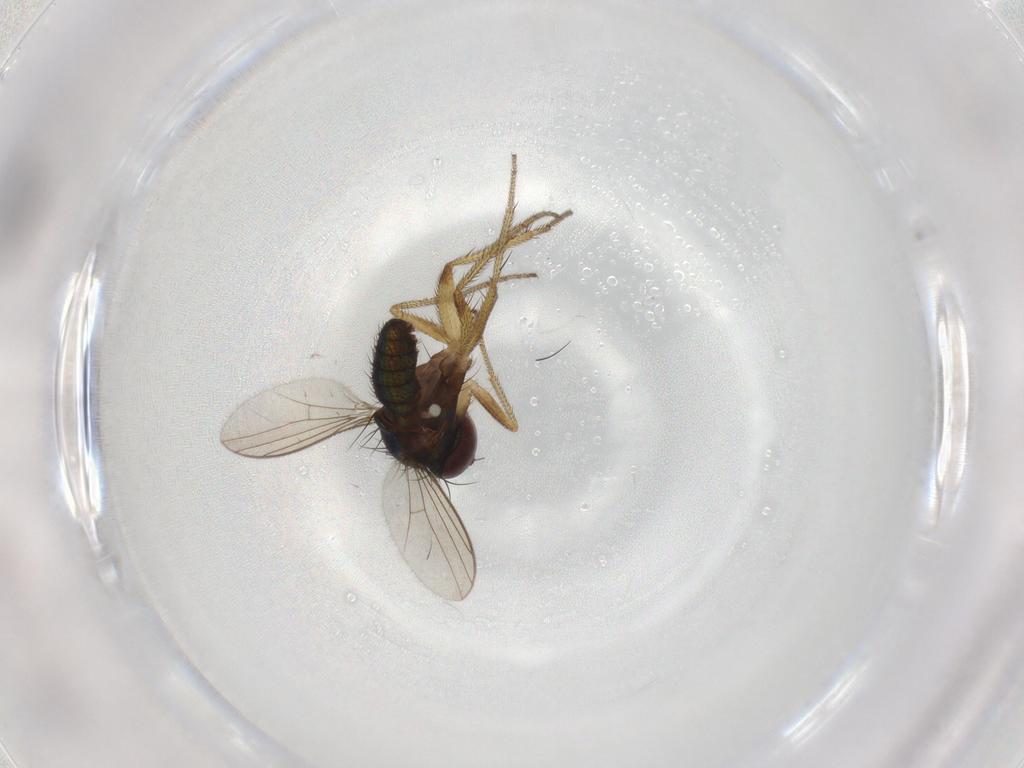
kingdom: Animalia
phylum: Arthropoda
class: Insecta
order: Diptera
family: Dolichopodidae
